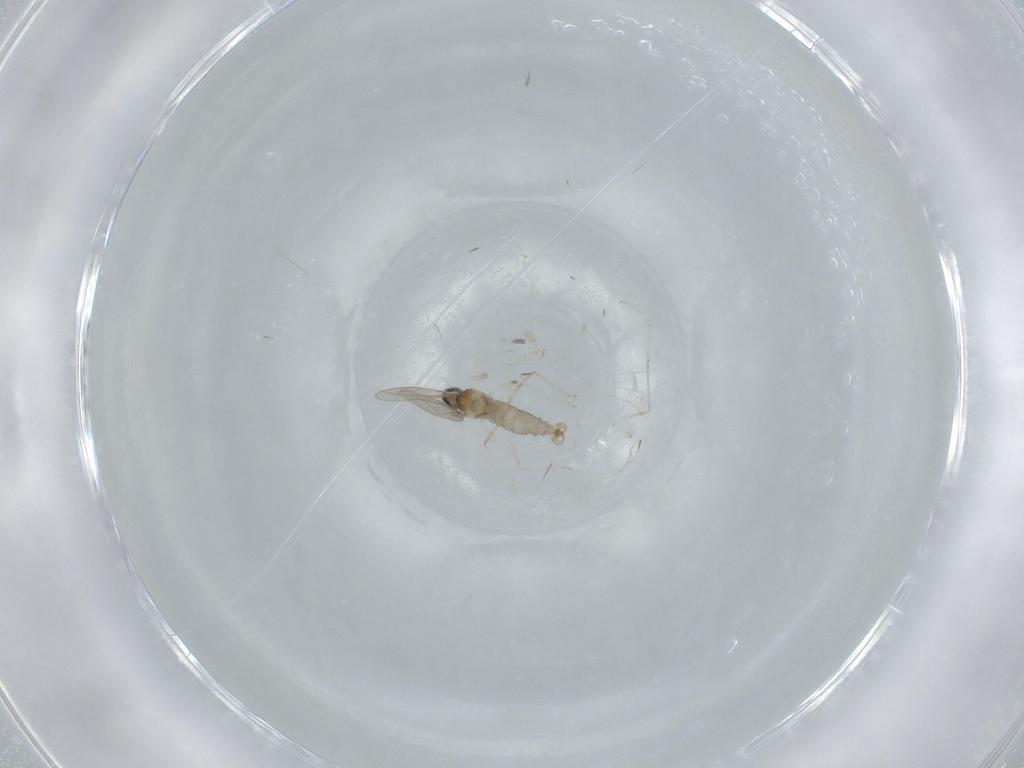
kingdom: Animalia
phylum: Arthropoda
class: Insecta
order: Diptera
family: Cecidomyiidae
